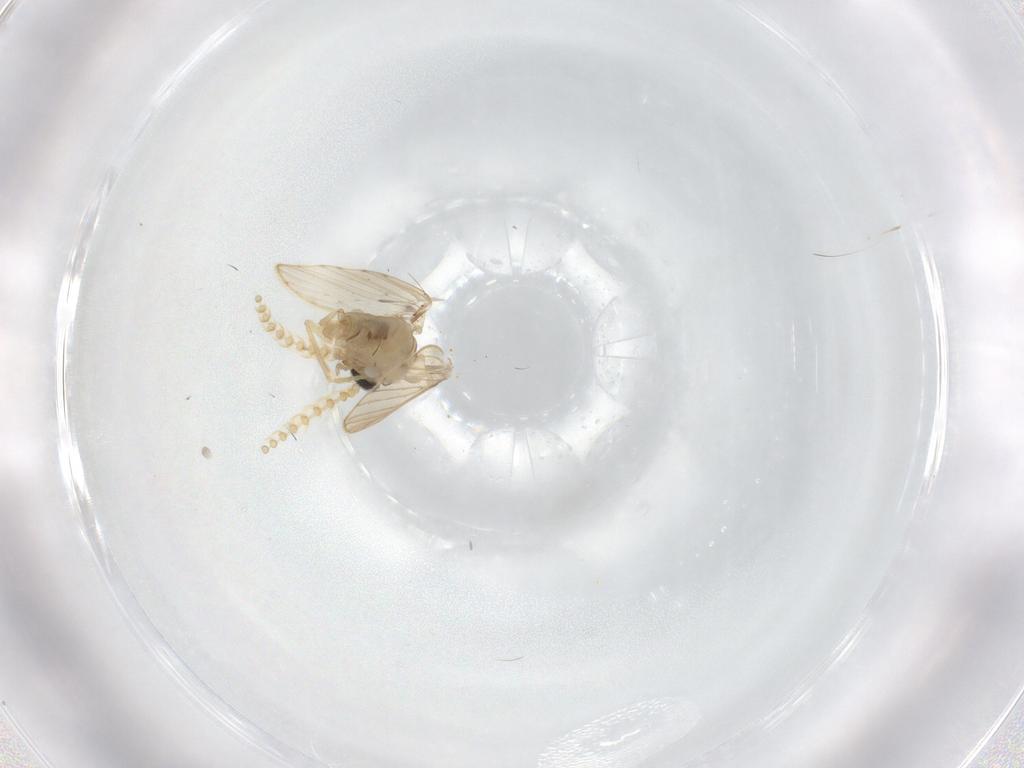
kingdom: Animalia
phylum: Arthropoda
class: Insecta
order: Diptera
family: Psychodidae
